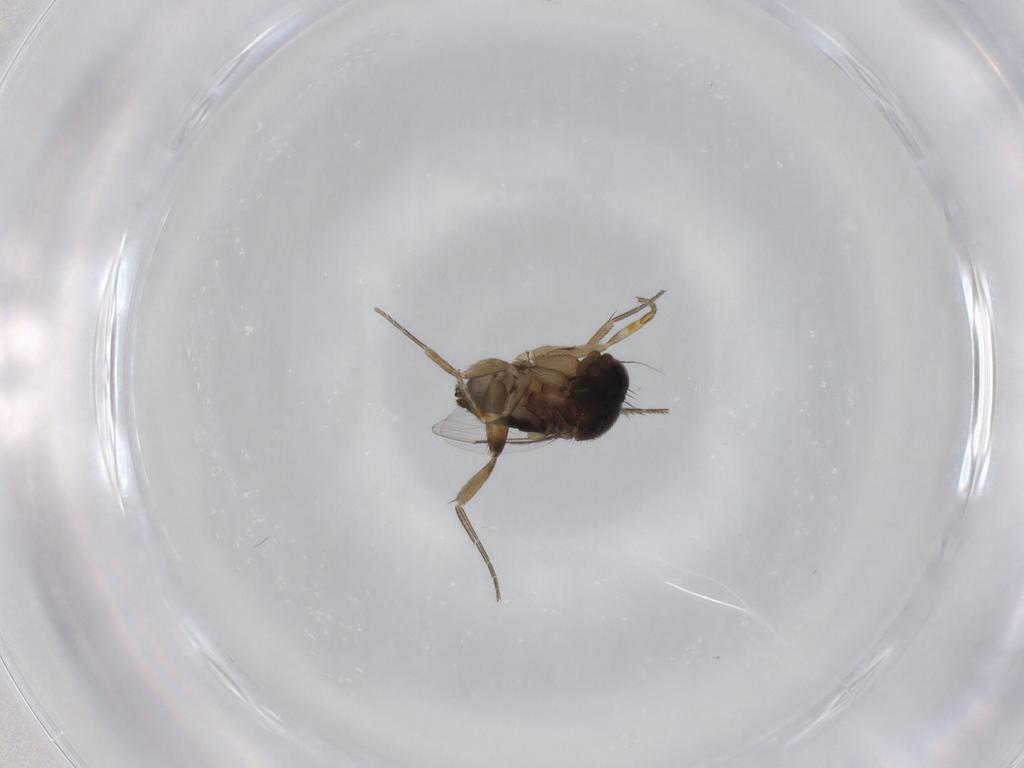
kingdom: Animalia
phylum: Arthropoda
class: Insecta
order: Diptera
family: Phoridae
